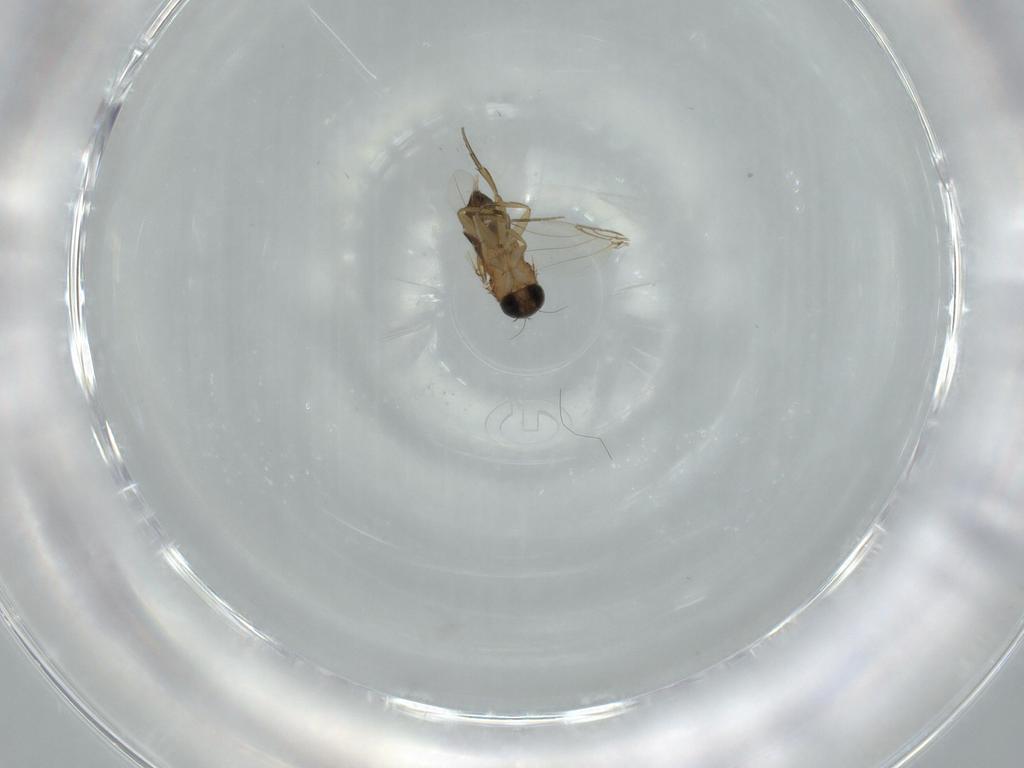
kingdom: Animalia
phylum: Arthropoda
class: Insecta
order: Diptera
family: Phoridae
